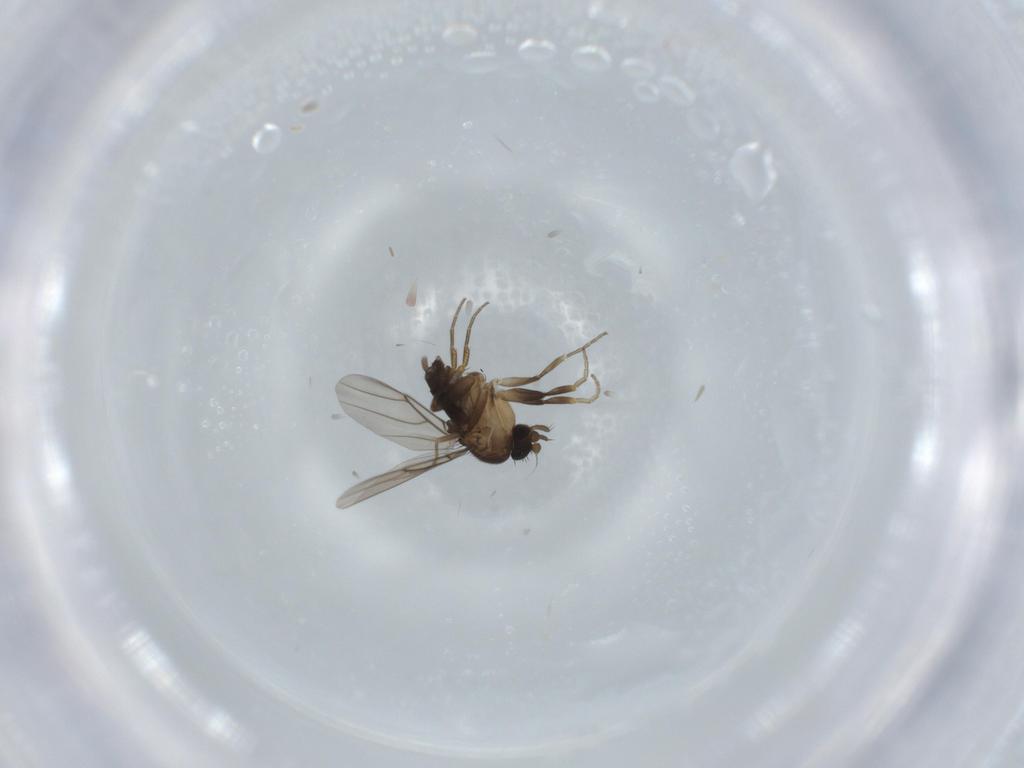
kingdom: Animalia
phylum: Arthropoda
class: Insecta
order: Diptera
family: Phoridae
